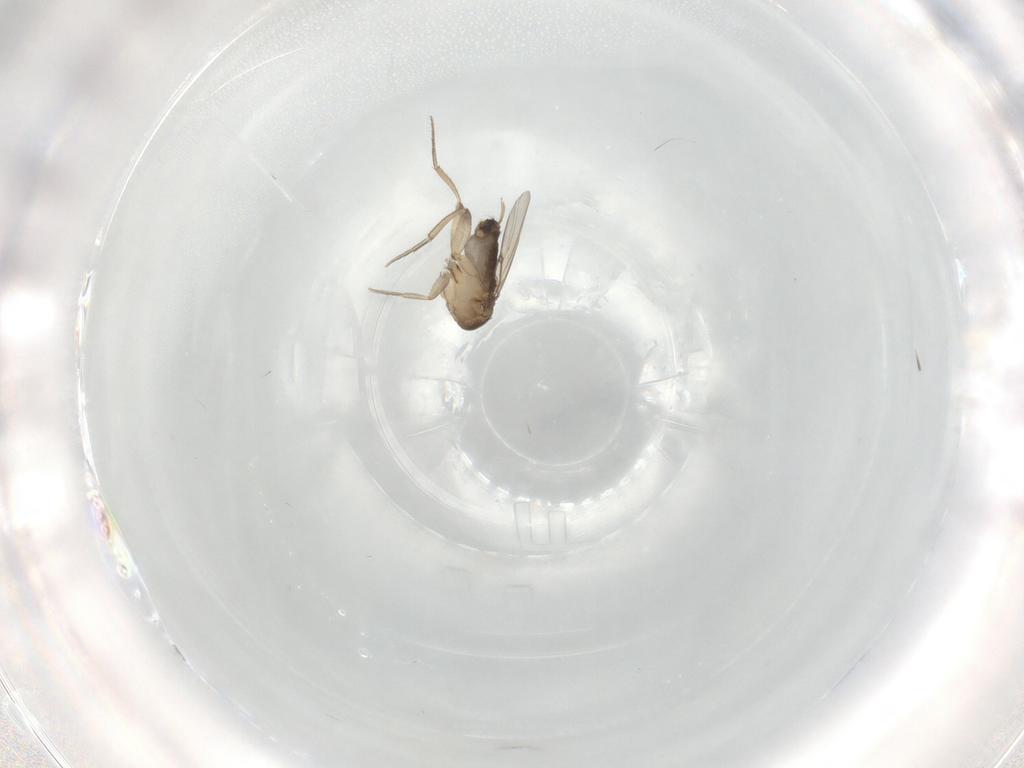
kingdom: Animalia
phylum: Arthropoda
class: Insecta
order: Diptera
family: Phoridae
